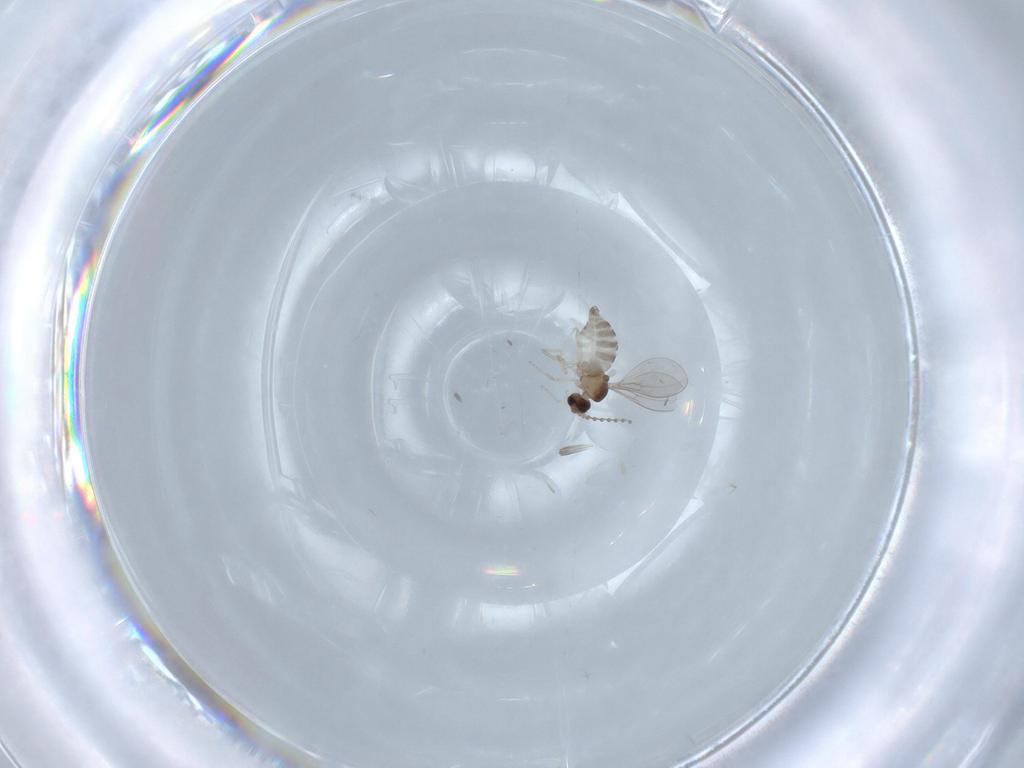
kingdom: Animalia
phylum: Arthropoda
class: Insecta
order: Diptera
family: Cecidomyiidae
